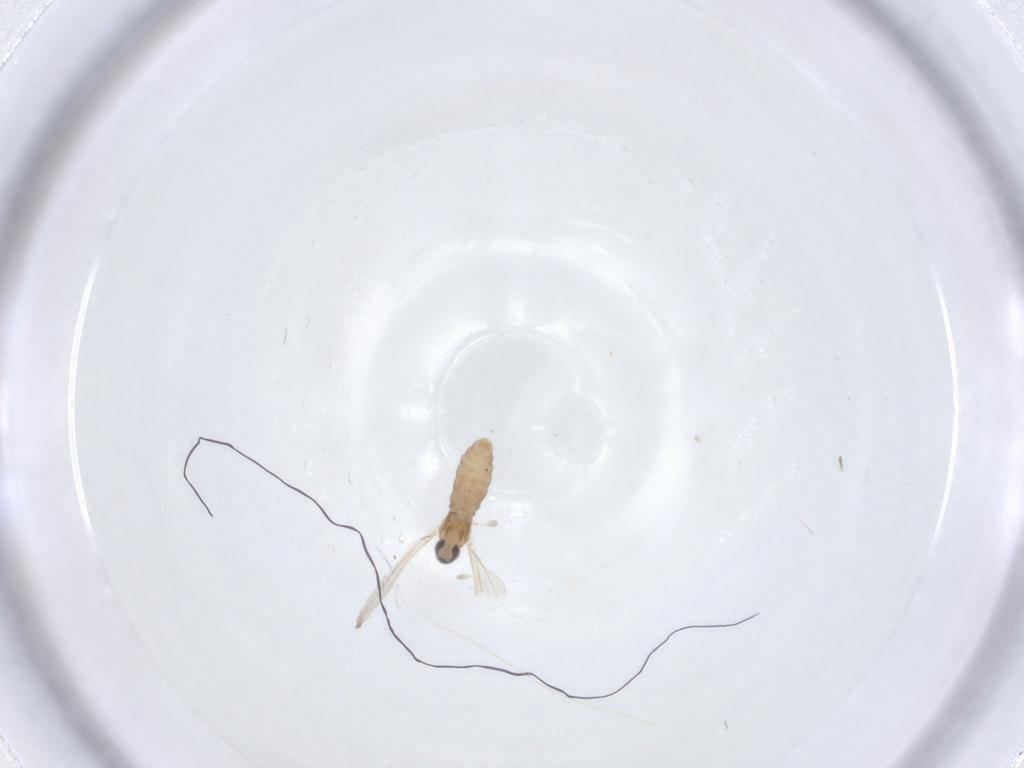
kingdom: Animalia
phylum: Arthropoda
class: Insecta
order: Diptera
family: Cecidomyiidae
